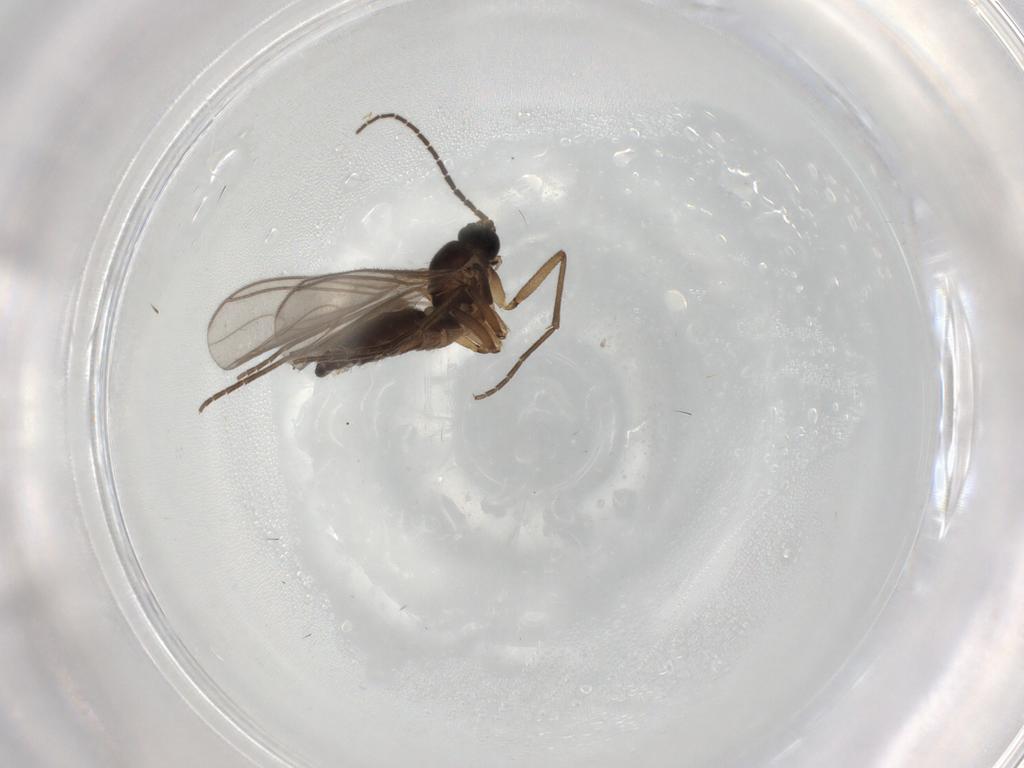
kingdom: Animalia
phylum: Arthropoda
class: Insecta
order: Diptera
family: Sciaridae
